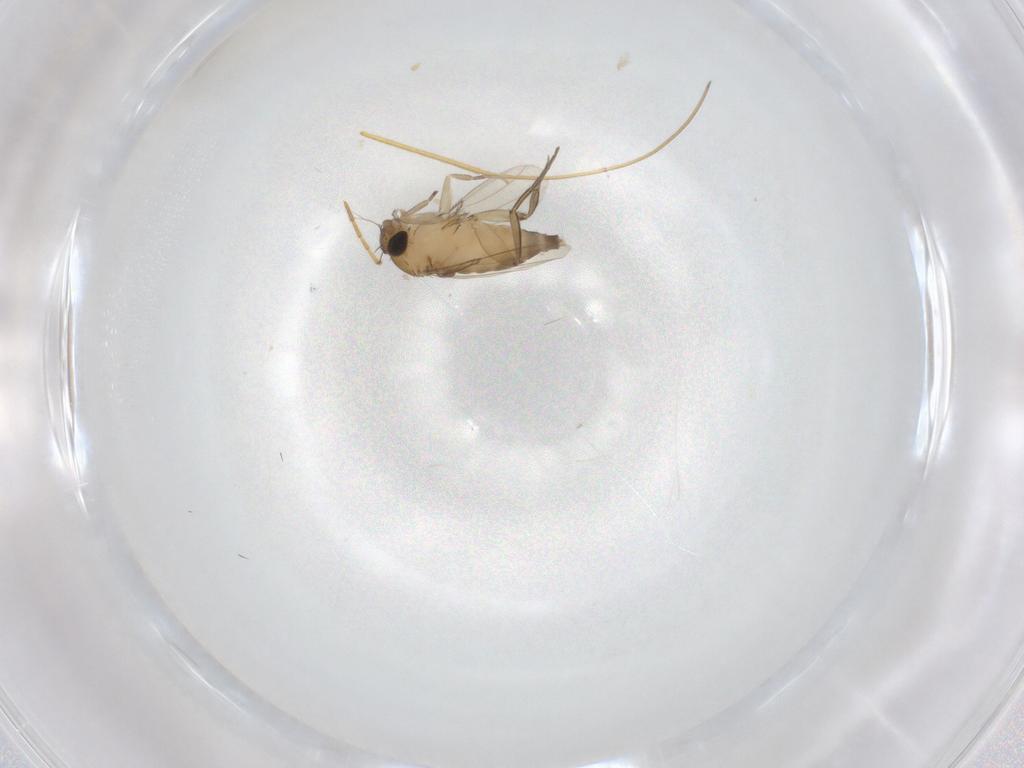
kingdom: Animalia
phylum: Arthropoda
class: Insecta
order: Diptera
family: Phoridae
